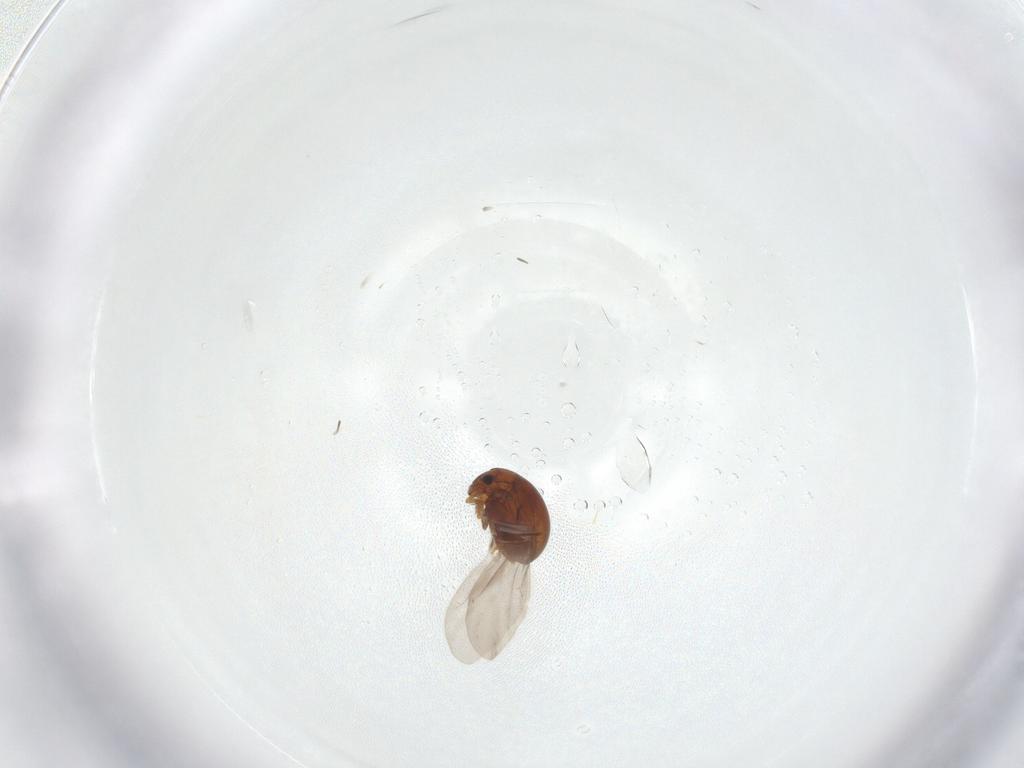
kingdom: Animalia
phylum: Arthropoda
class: Insecta
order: Coleoptera
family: Chrysomelidae
